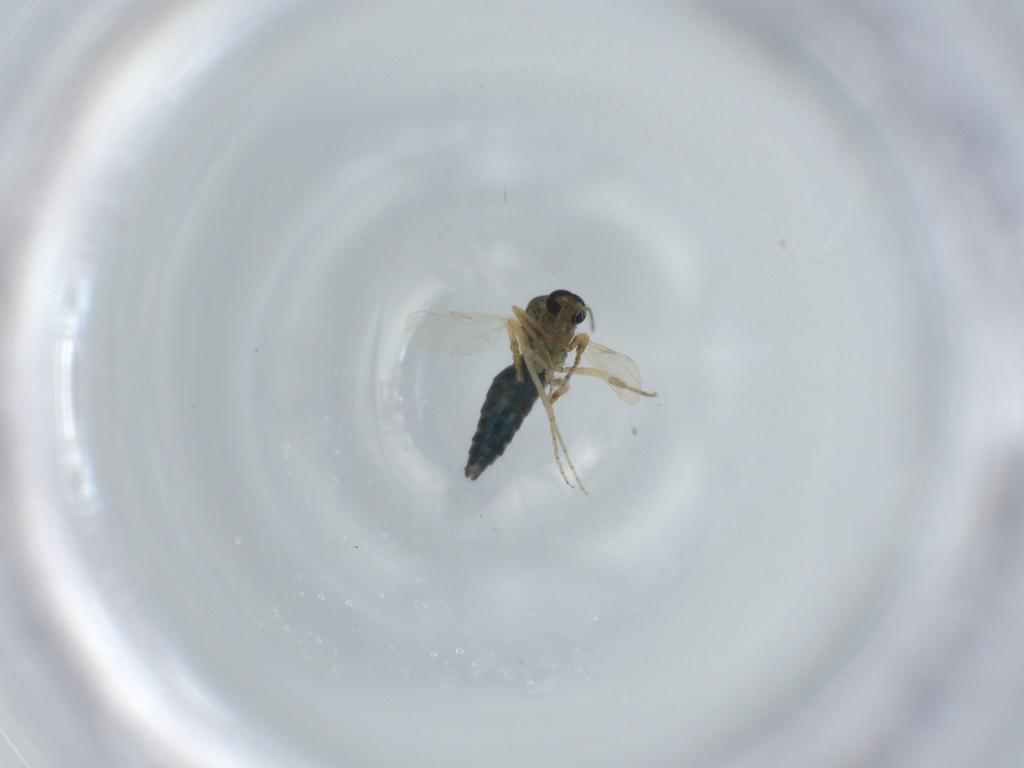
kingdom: Animalia
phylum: Arthropoda
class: Insecta
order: Diptera
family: Ceratopogonidae
